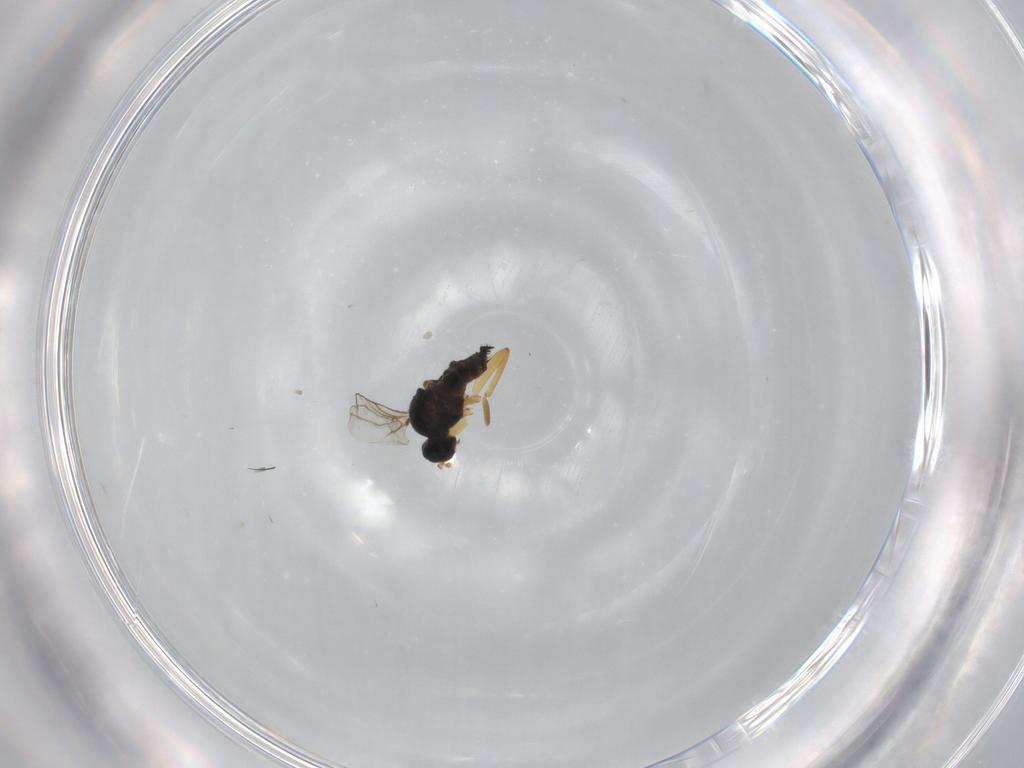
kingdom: Animalia
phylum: Arthropoda
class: Insecta
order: Diptera
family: Hybotidae
